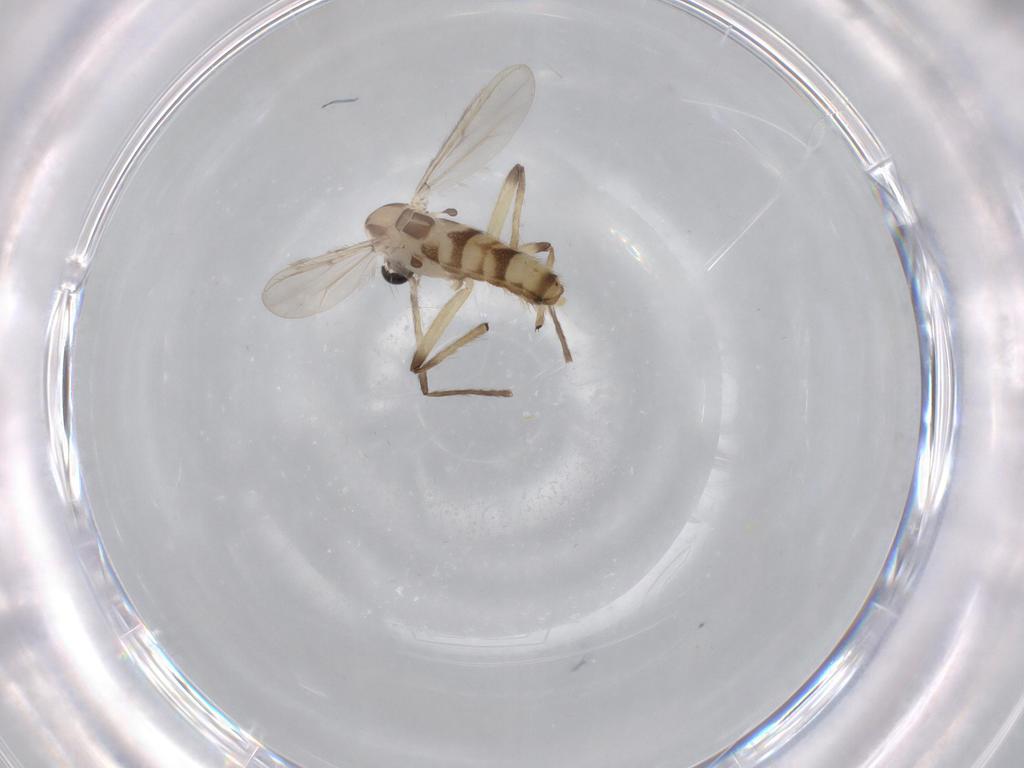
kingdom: Animalia
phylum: Arthropoda
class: Insecta
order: Diptera
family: Chironomidae
